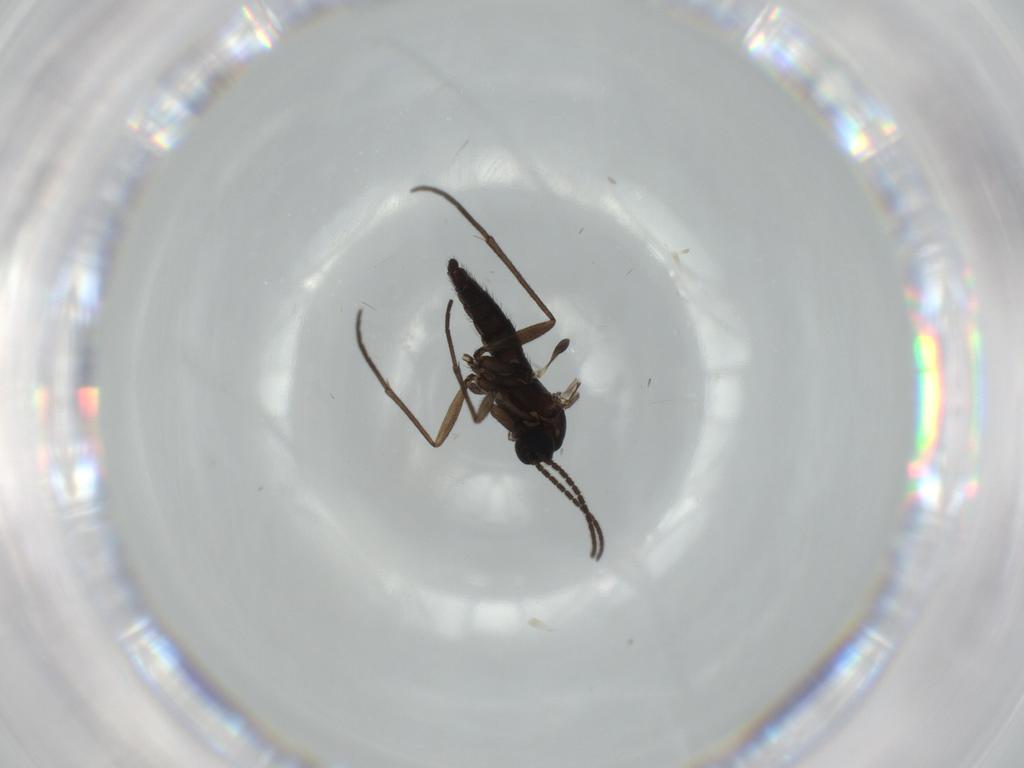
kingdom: Animalia
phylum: Arthropoda
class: Insecta
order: Diptera
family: Sciaridae
